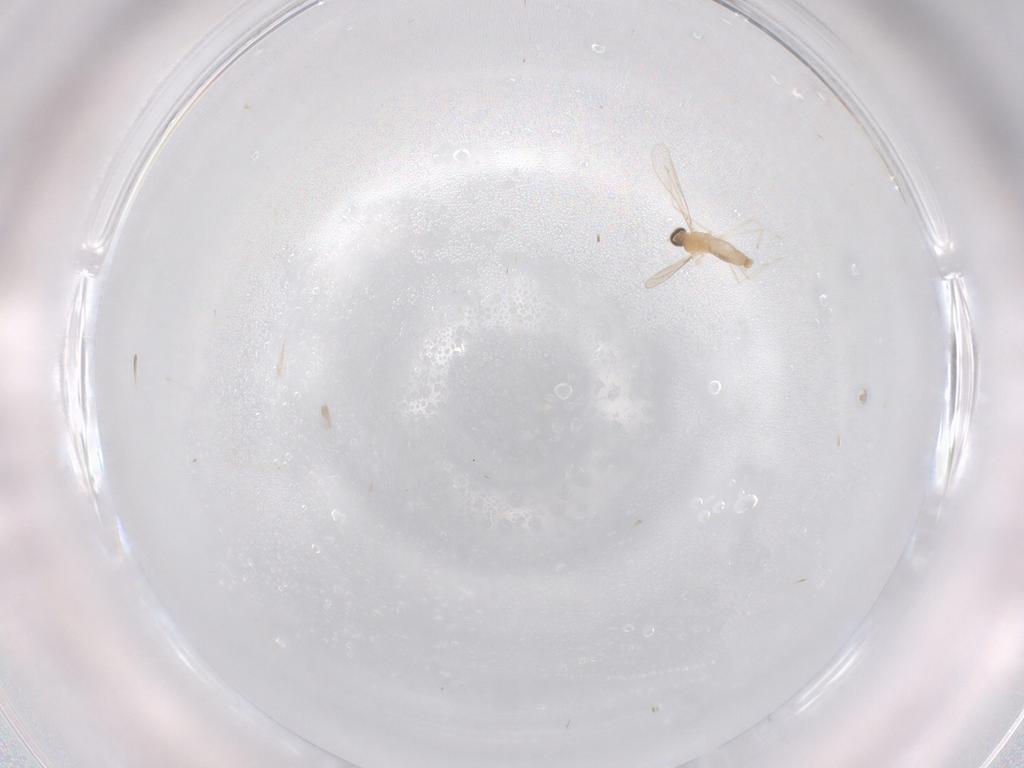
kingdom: Animalia
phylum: Arthropoda
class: Insecta
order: Diptera
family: Cecidomyiidae
